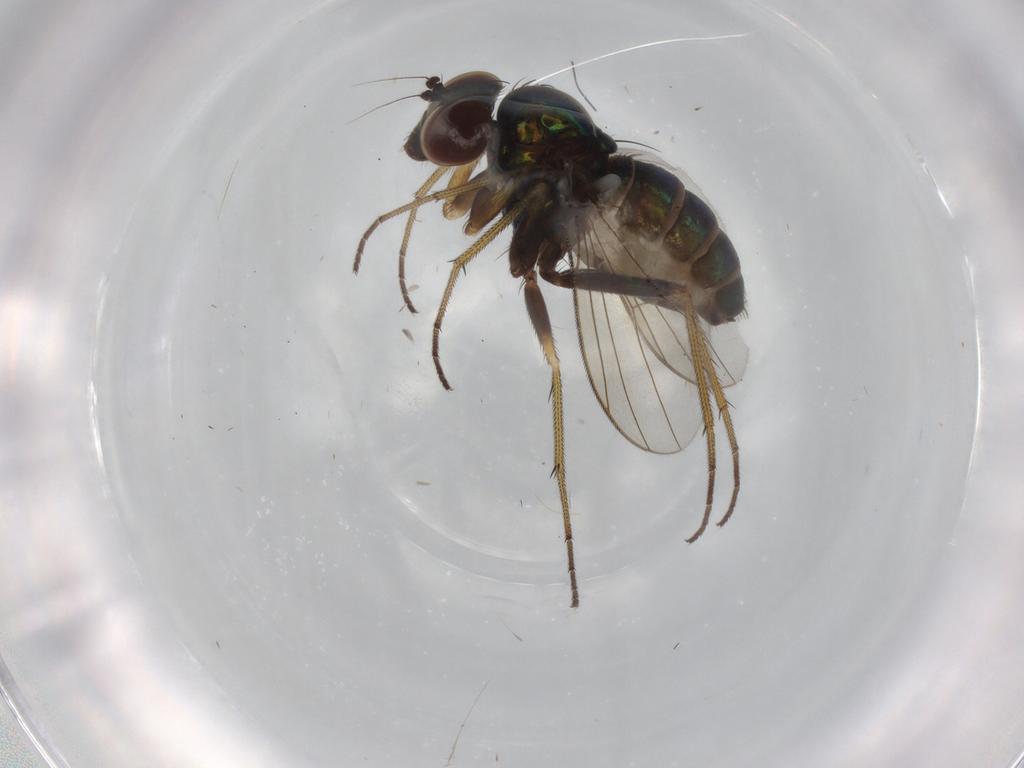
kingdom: Animalia
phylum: Arthropoda
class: Insecta
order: Diptera
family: Dolichopodidae
